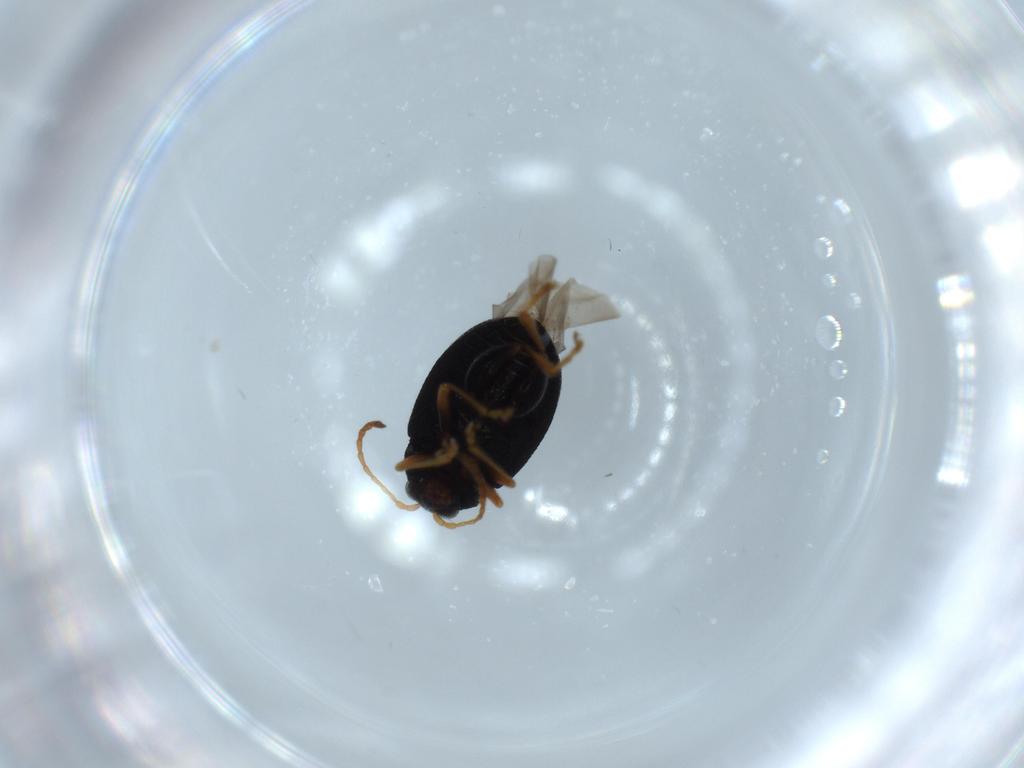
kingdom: Animalia
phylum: Arthropoda
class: Insecta
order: Coleoptera
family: Chrysomelidae
